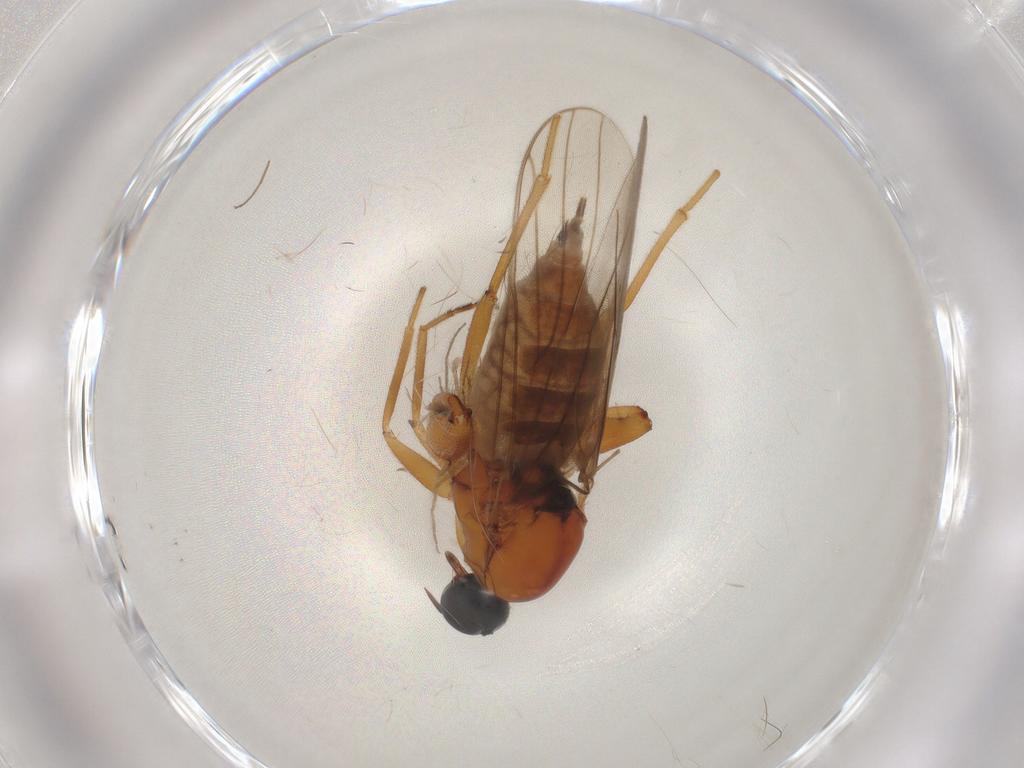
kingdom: Animalia
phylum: Arthropoda
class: Insecta
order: Diptera
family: Hybotidae
